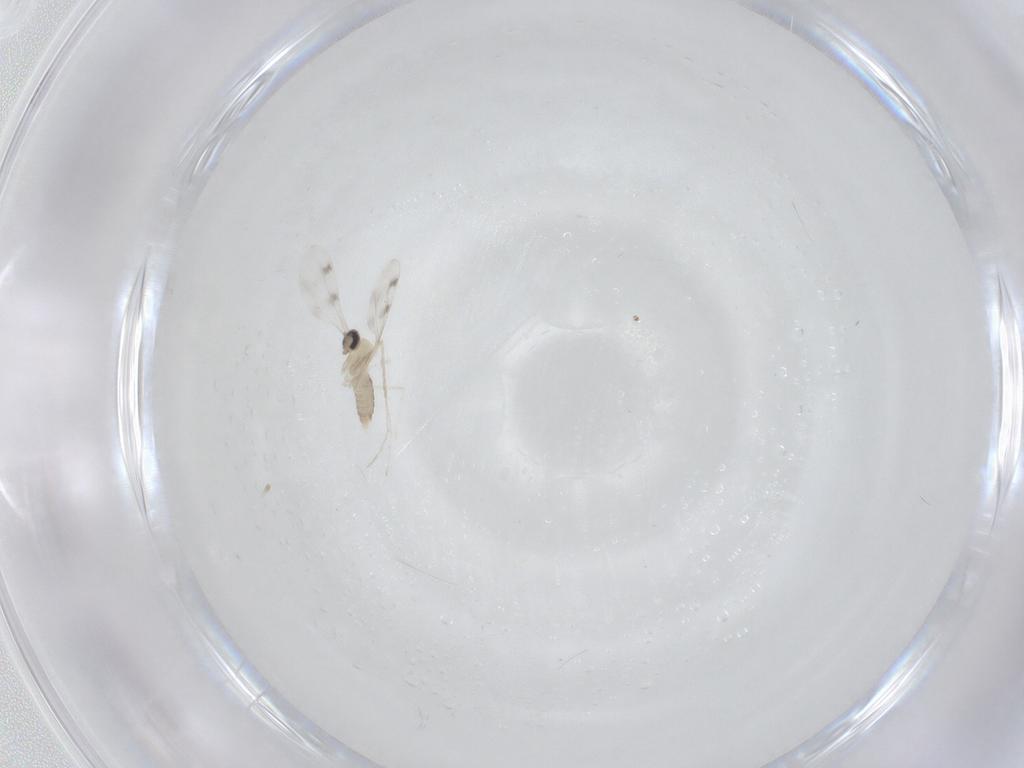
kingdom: Animalia
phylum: Arthropoda
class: Insecta
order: Diptera
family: Cecidomyiidae
